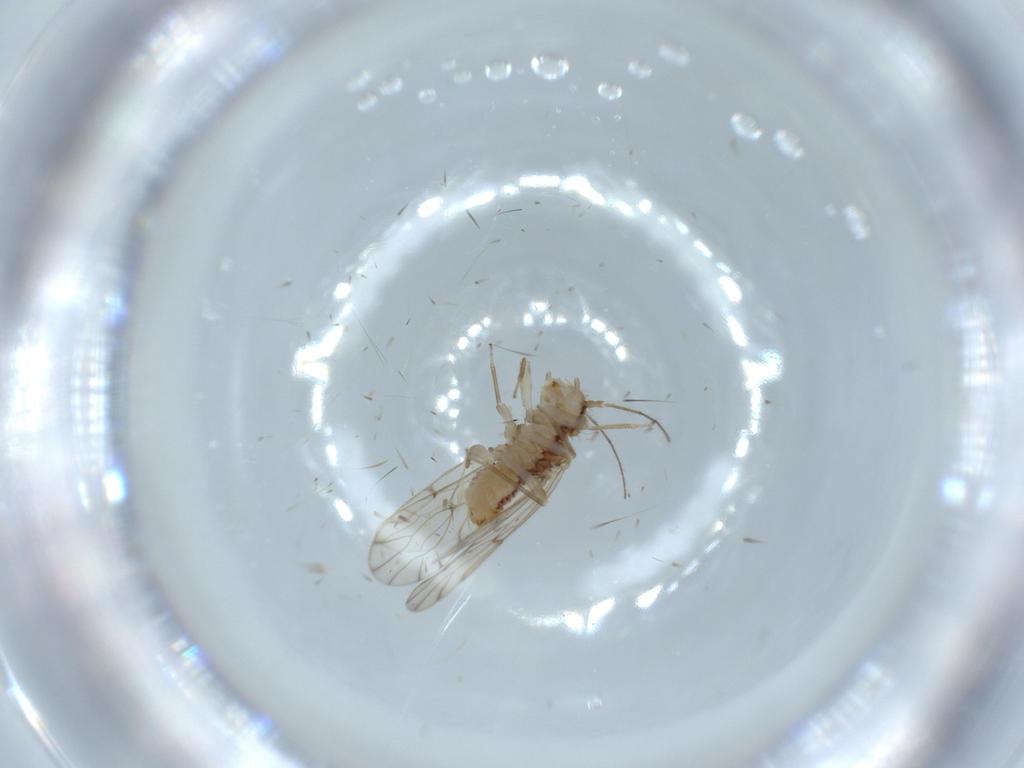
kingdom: Animalia
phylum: Arthropoda
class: Insecta
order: Psocodea
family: Ectopsocidae
